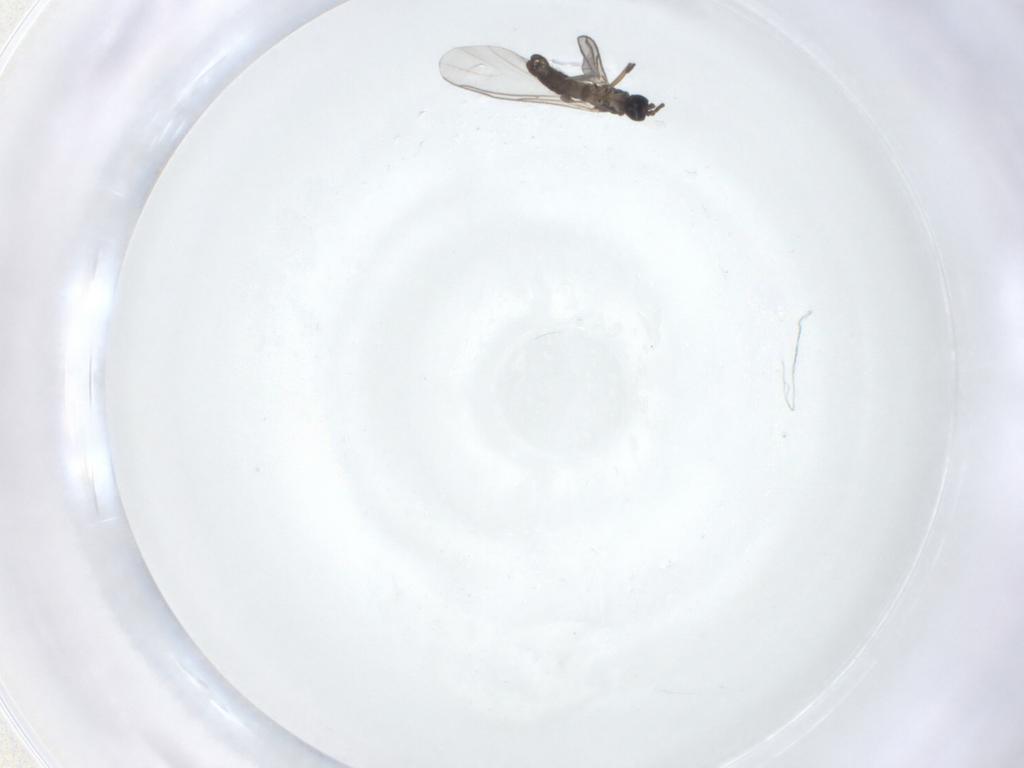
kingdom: Animalia
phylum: Arthropoda
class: Insecta
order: Diptera
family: Sciaridae
